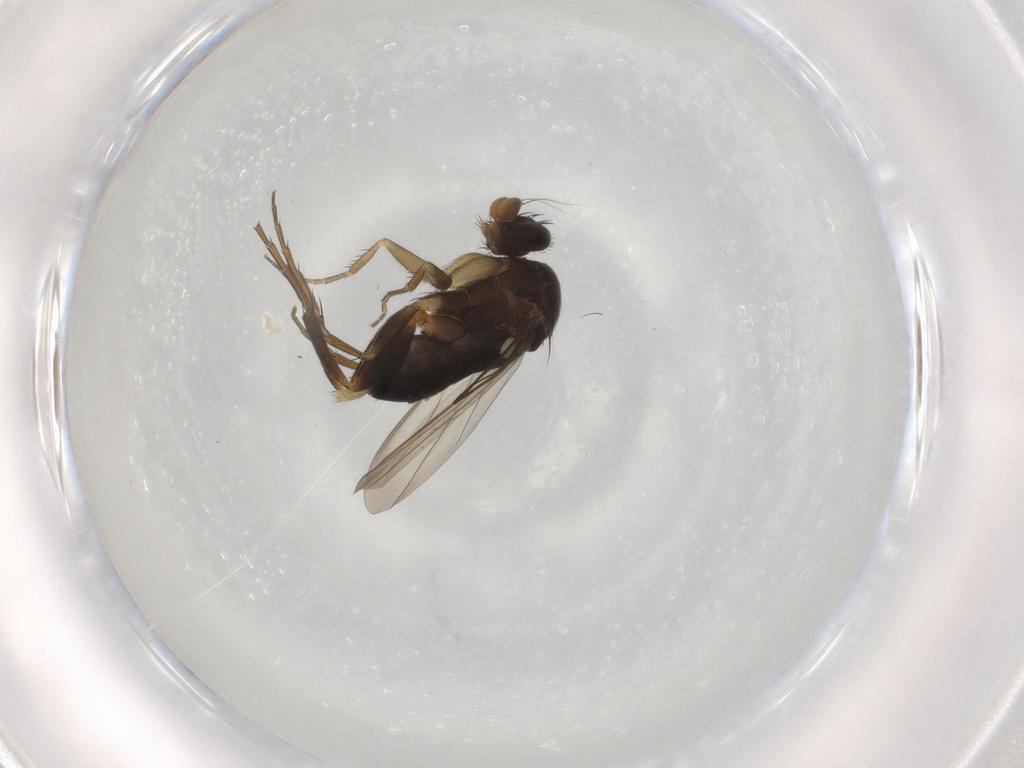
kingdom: Animalia
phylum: Arthropoda
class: Insecta
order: Diptera
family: Phoridae
